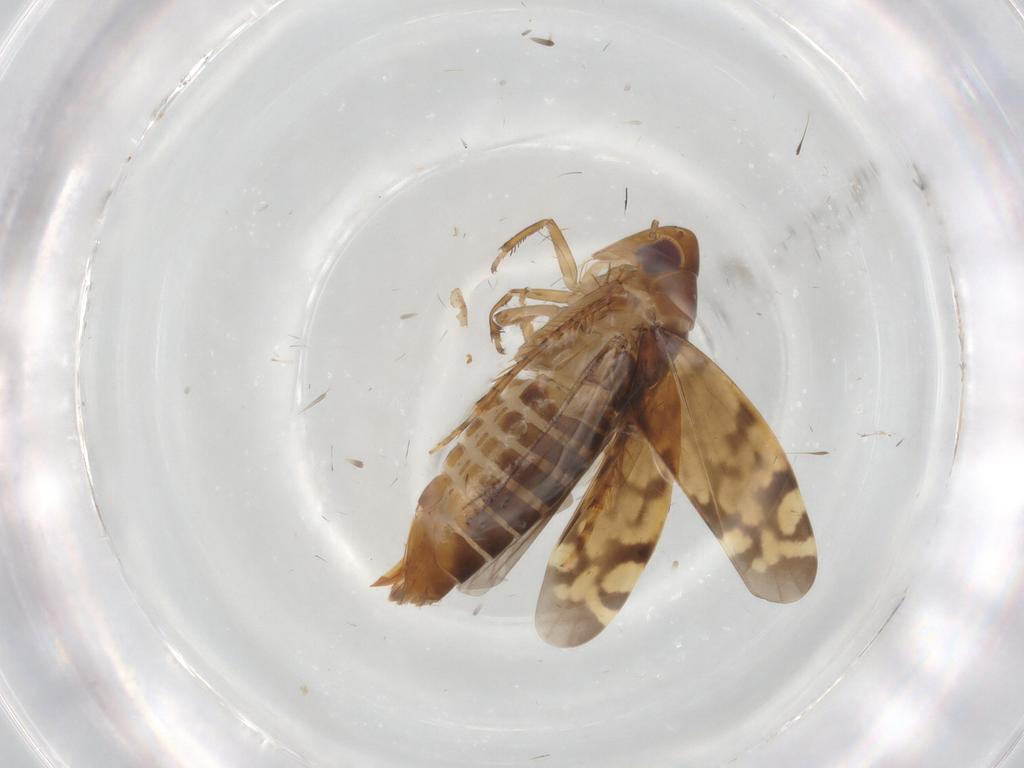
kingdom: Animalia
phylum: Arthropoda
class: Insecta
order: Hemiptera
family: Cicadellidae
